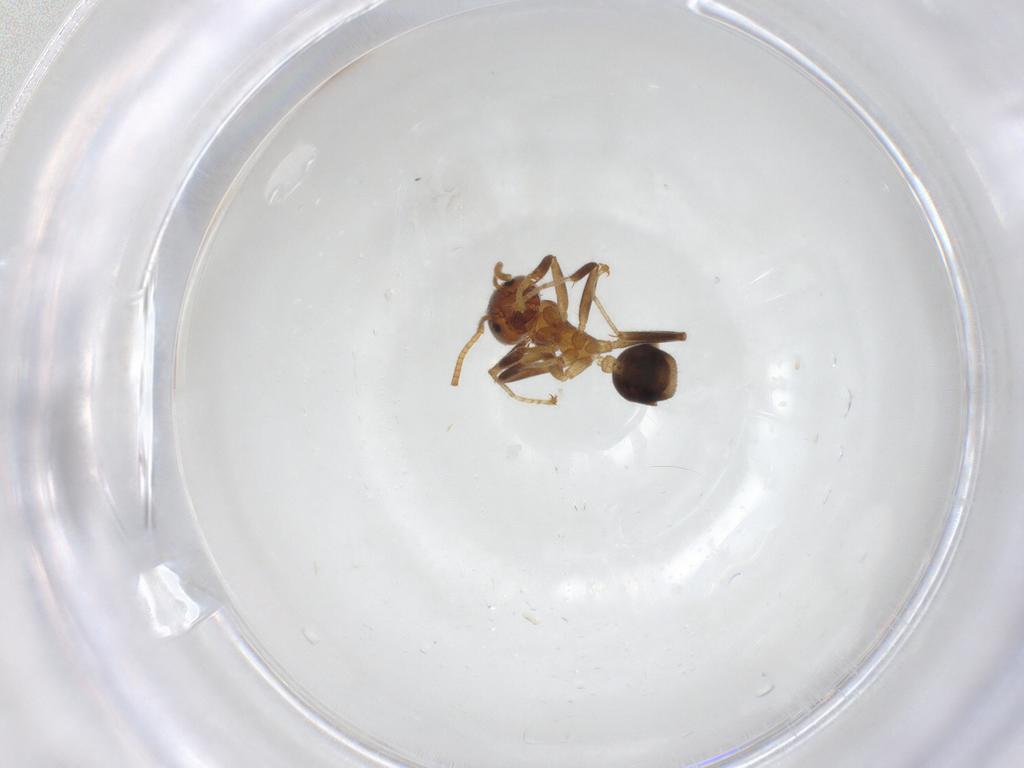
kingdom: Animalia
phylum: Arthropoda
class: Insecta
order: Hymenoptera
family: Formicidae
